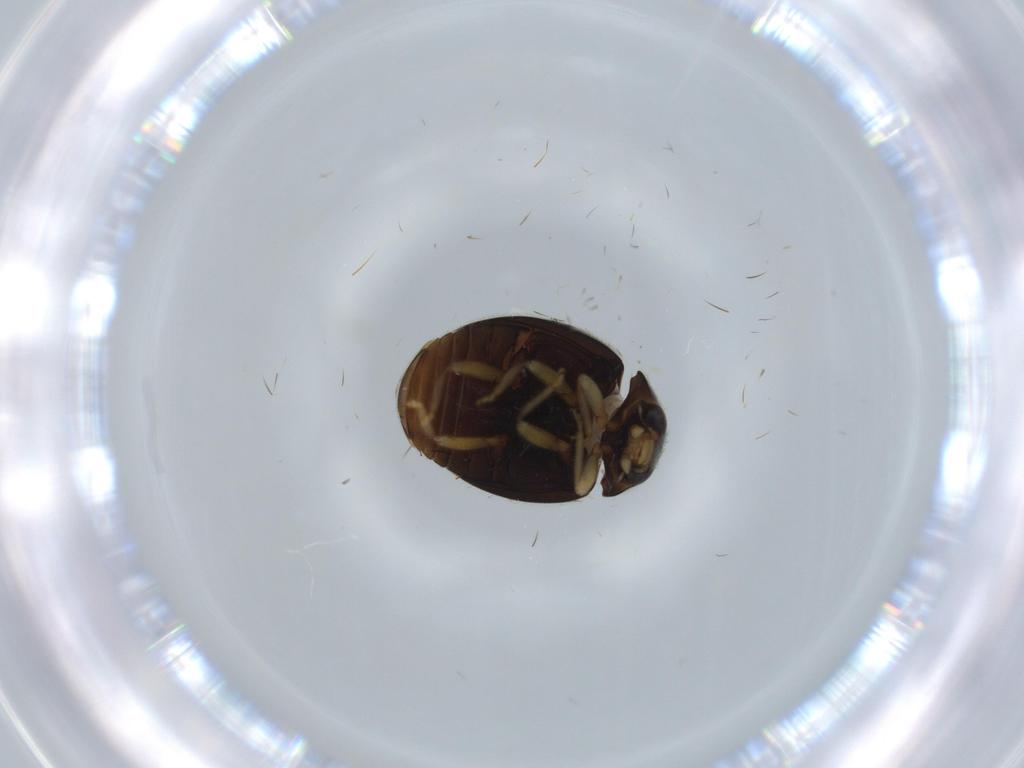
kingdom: Animalia
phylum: Arthropoda
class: Insecta
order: Coleoptera
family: Coccinellidae
